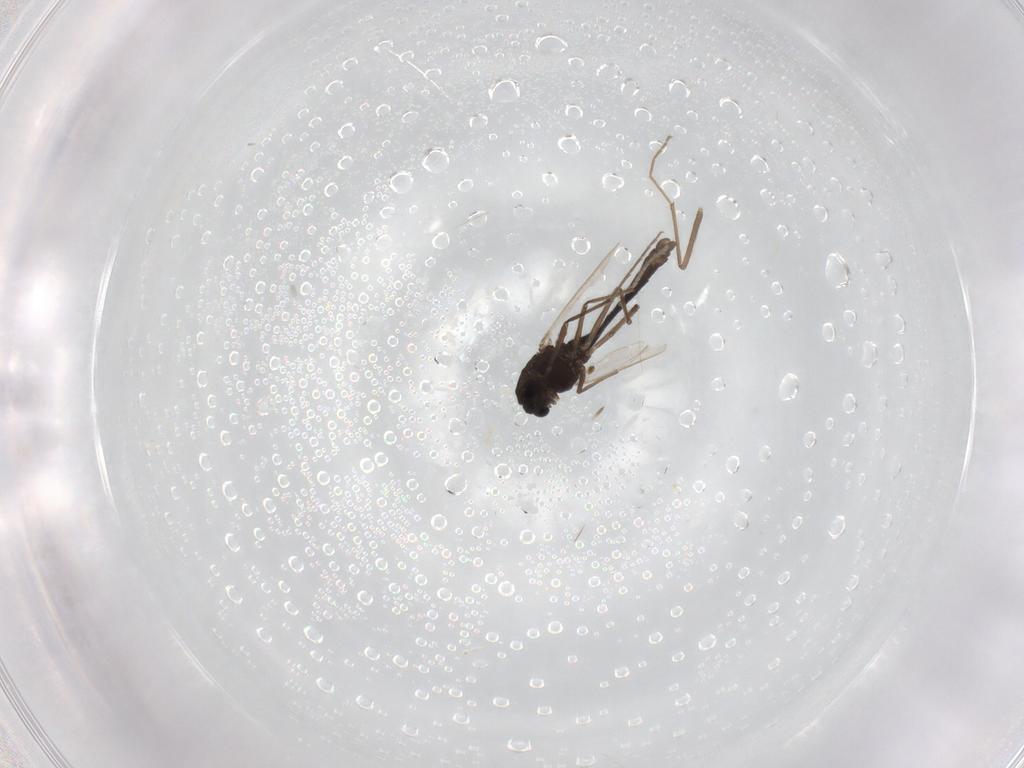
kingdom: Animalia
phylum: Arthropoda
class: Insecta
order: Diptera
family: Chironomidae
